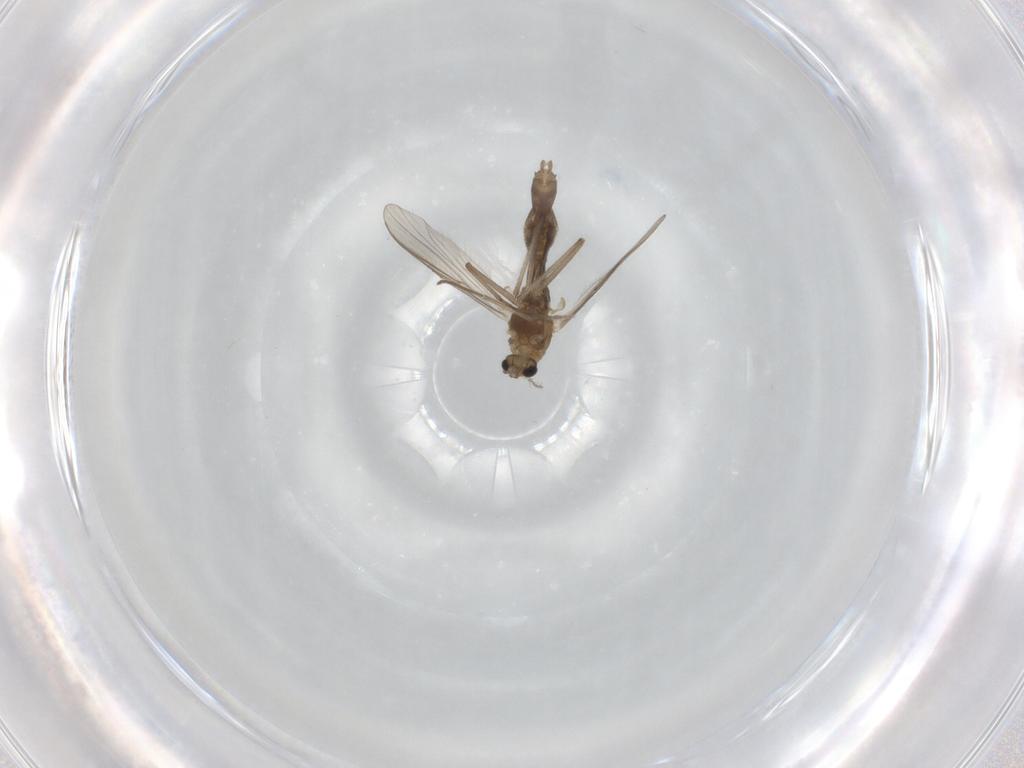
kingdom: Animalia
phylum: Arthropoda
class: Insecta
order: Diptera
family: Chironomidae
